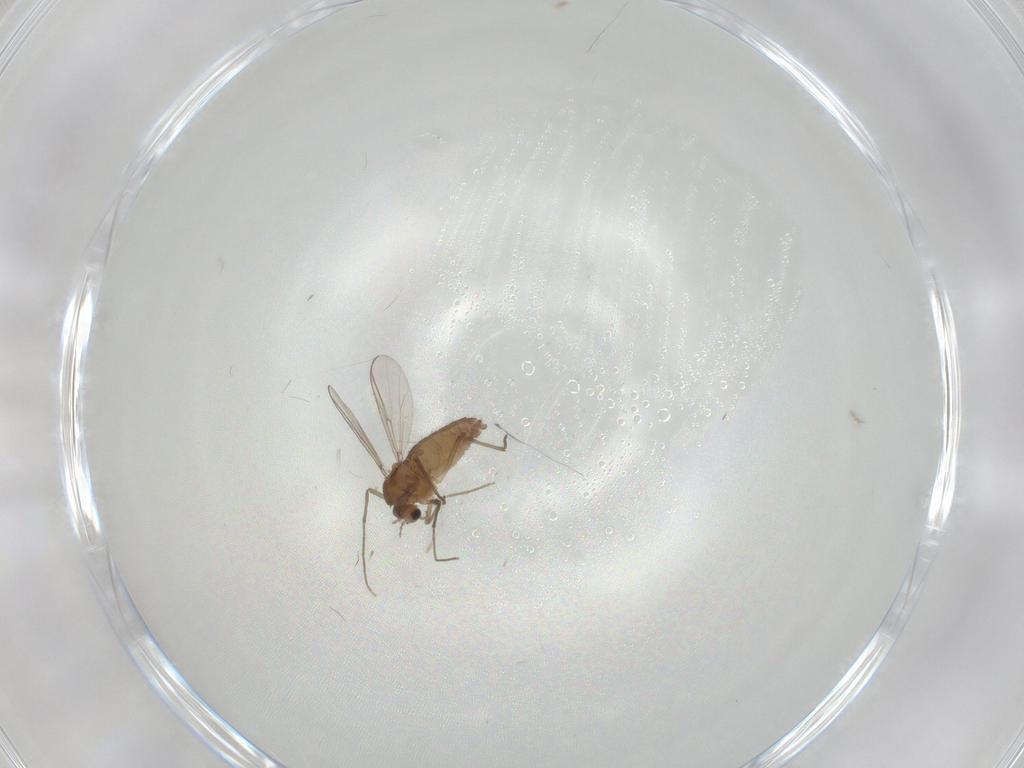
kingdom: Animalia
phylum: Arthropoda
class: Insecta
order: Diptera
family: Chironomidae
